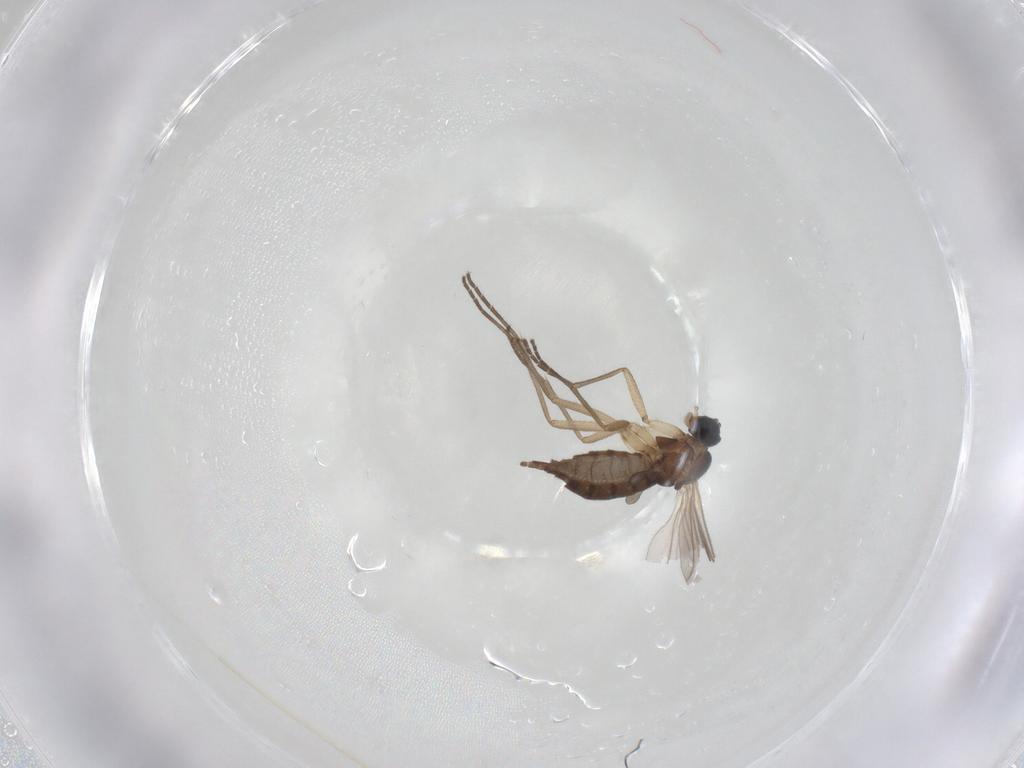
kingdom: Animalia
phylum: Arthropoda
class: Insecta
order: Diptera
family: Sciaridae
